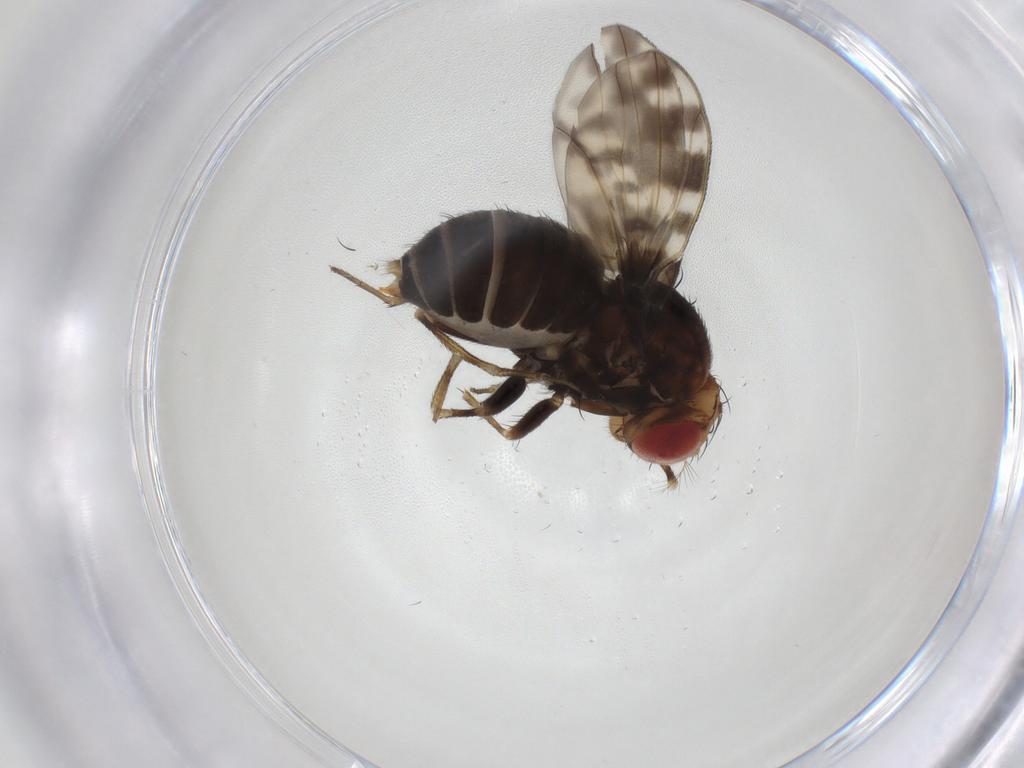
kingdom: Animalia
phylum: Arthropoda
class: Insecta
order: Diptera
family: Drosophilidae
